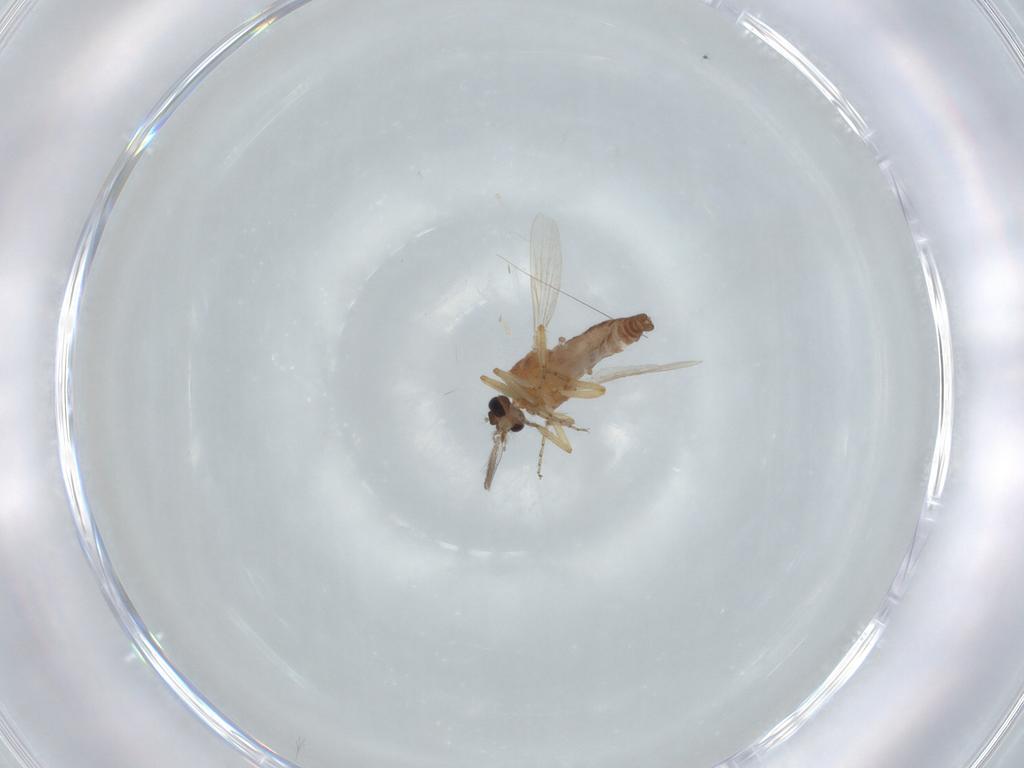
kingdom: Animalia
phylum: Arthropoda
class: Insecta
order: Diptera
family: Ceratopogonidae
